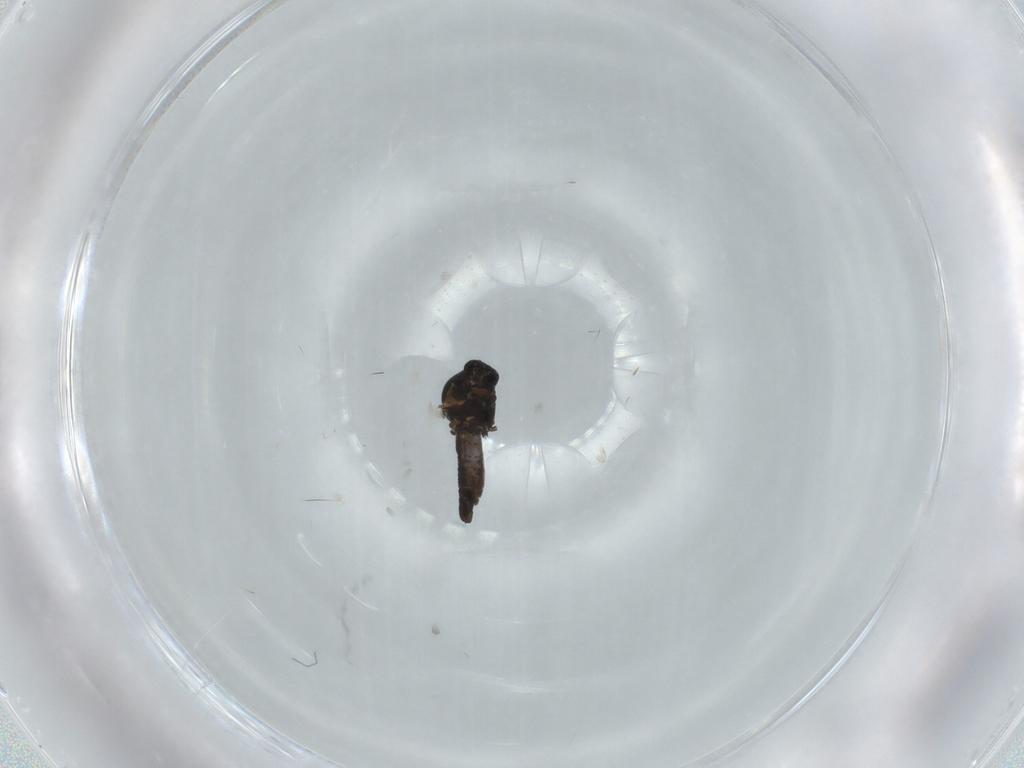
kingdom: Animalia
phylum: Arthropoda
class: Insecta
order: Diptera
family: Ceratopogonidae
